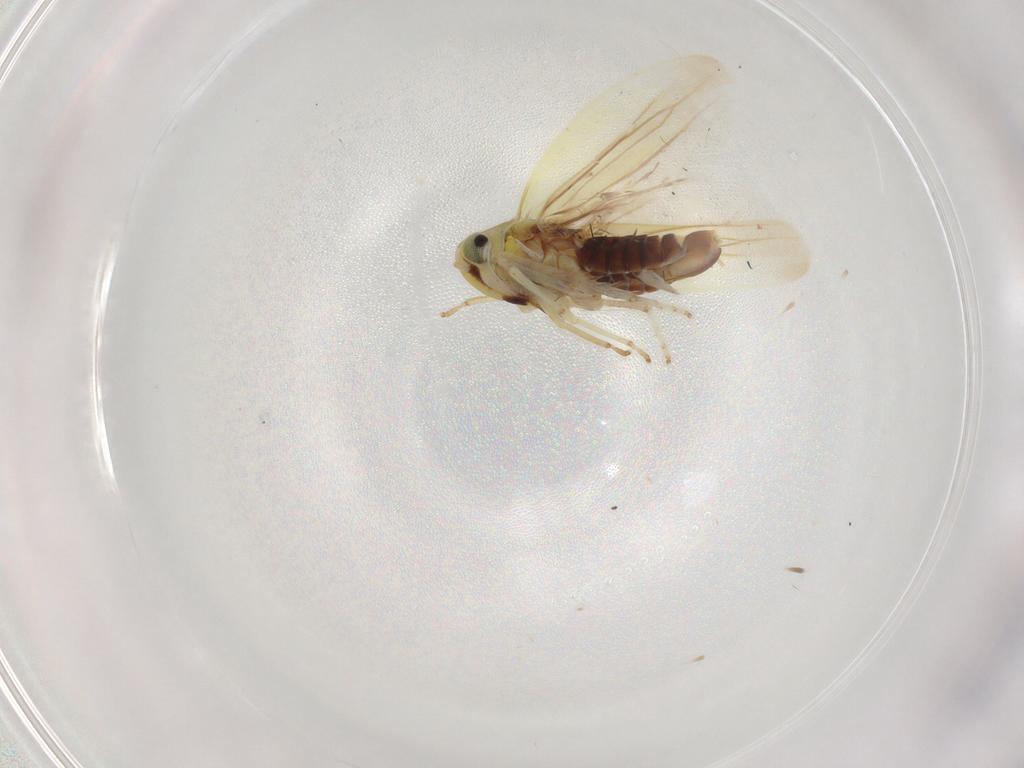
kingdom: Animalia
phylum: Arthropoda
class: Insecta
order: Hemiptera
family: Cicadellidae
